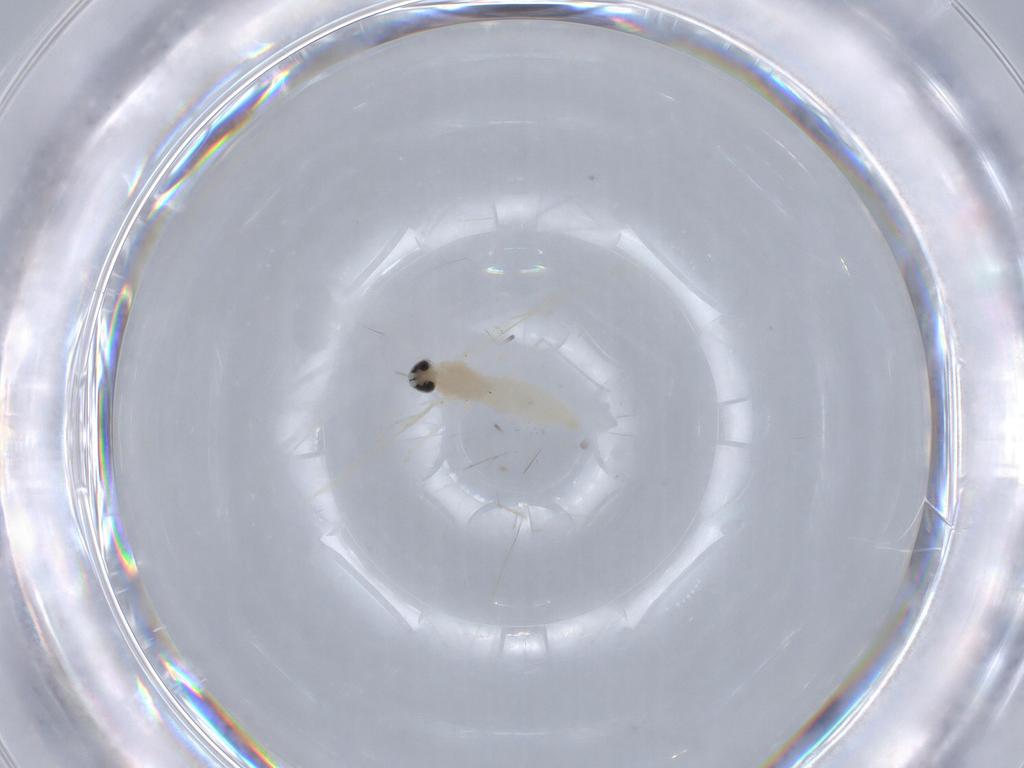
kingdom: Animalia
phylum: Arthropoda
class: Insecta
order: Diptera
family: Cecidomyiidae
